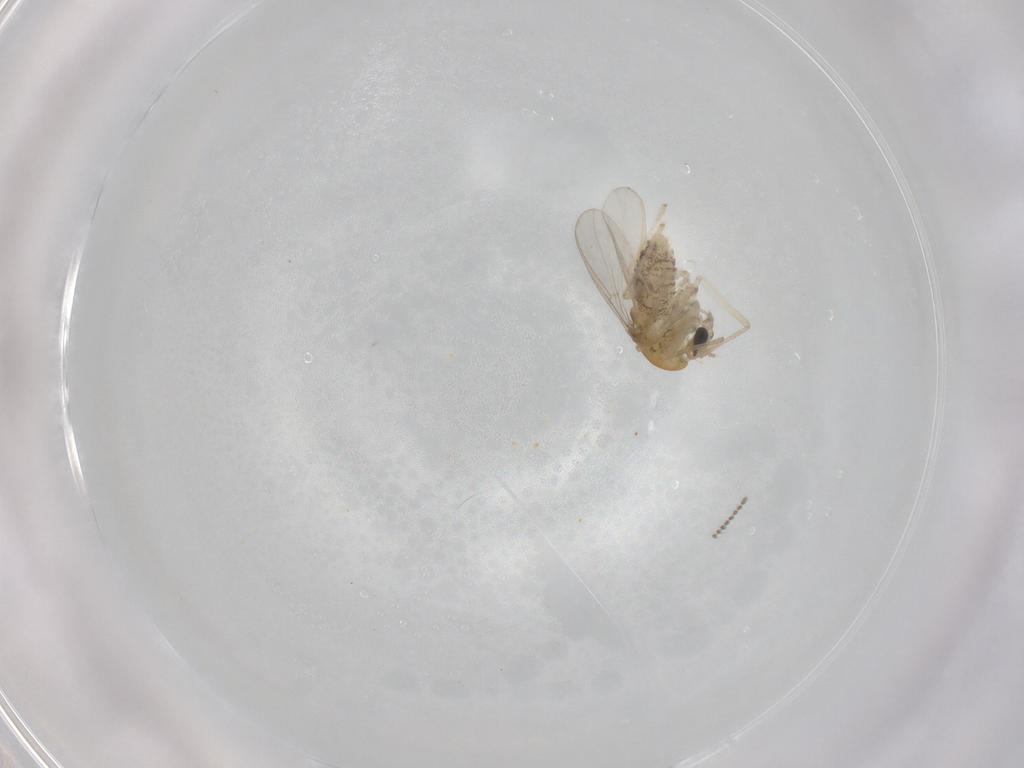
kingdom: Animalia
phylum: Arthropoda
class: Insecta
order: Diptera
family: Chironomidae
